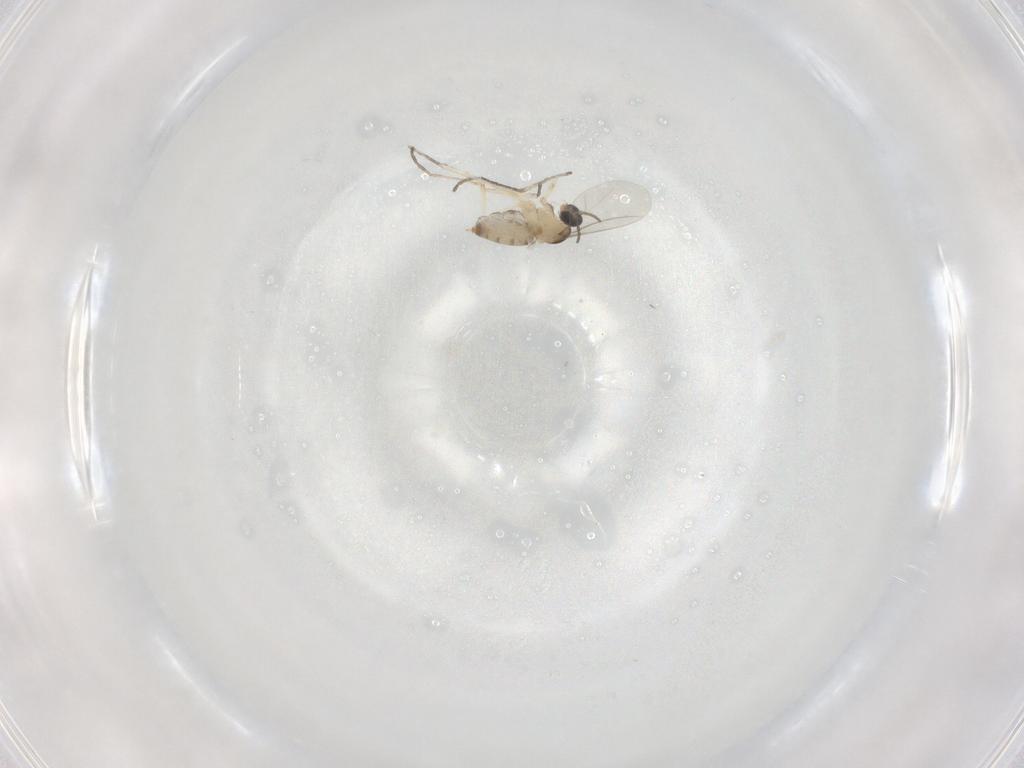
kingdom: Animalia
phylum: Arthropoda
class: Insecta
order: Diptera
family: Cecidomyiidae
